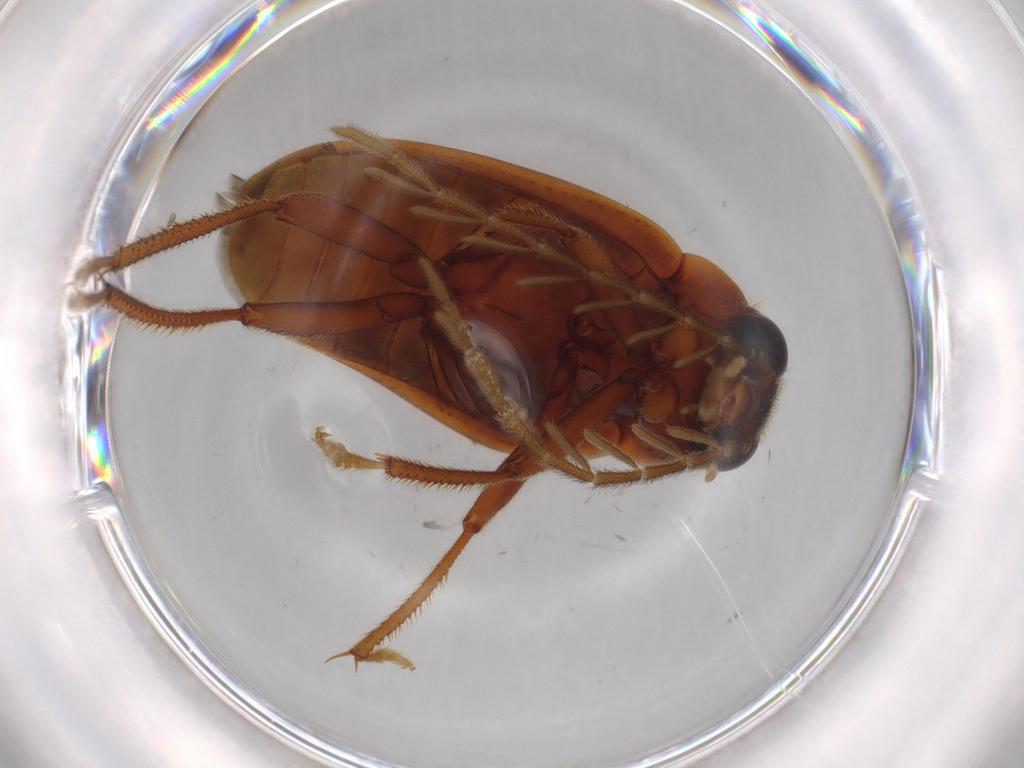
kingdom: Animalia
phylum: Arthropoda
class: Insecta
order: Coleoptera
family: Ptilodactylidae
